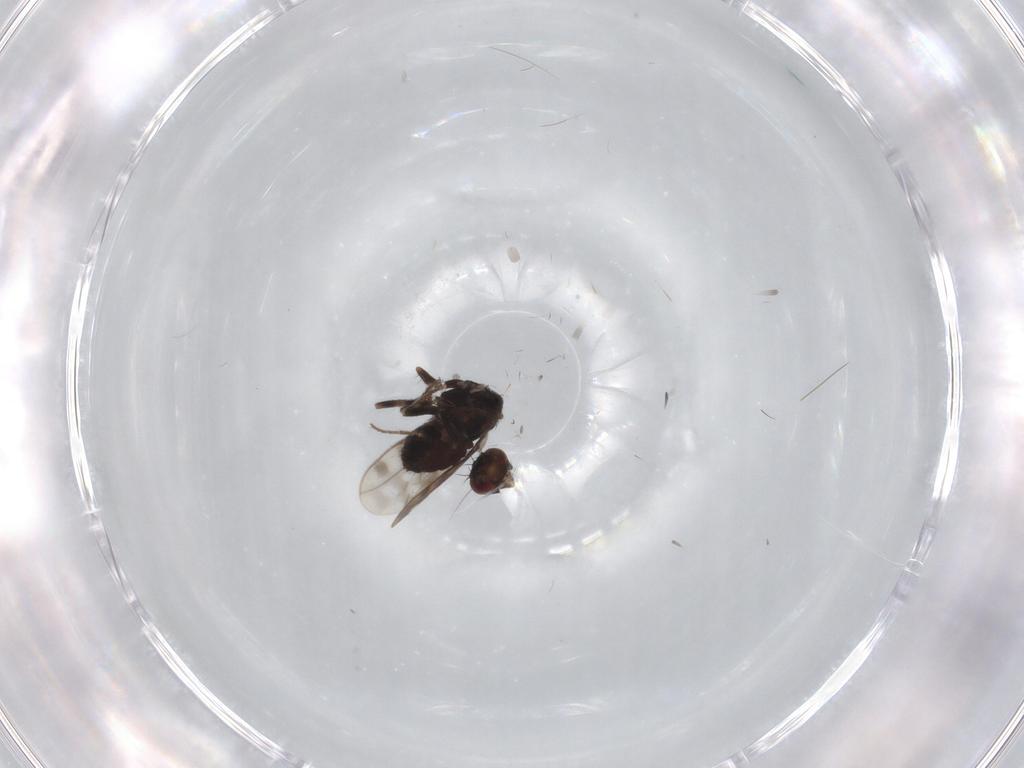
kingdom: Animalia
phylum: Arthropoda
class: Insecta
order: Diptera
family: Sphaeroceridae
